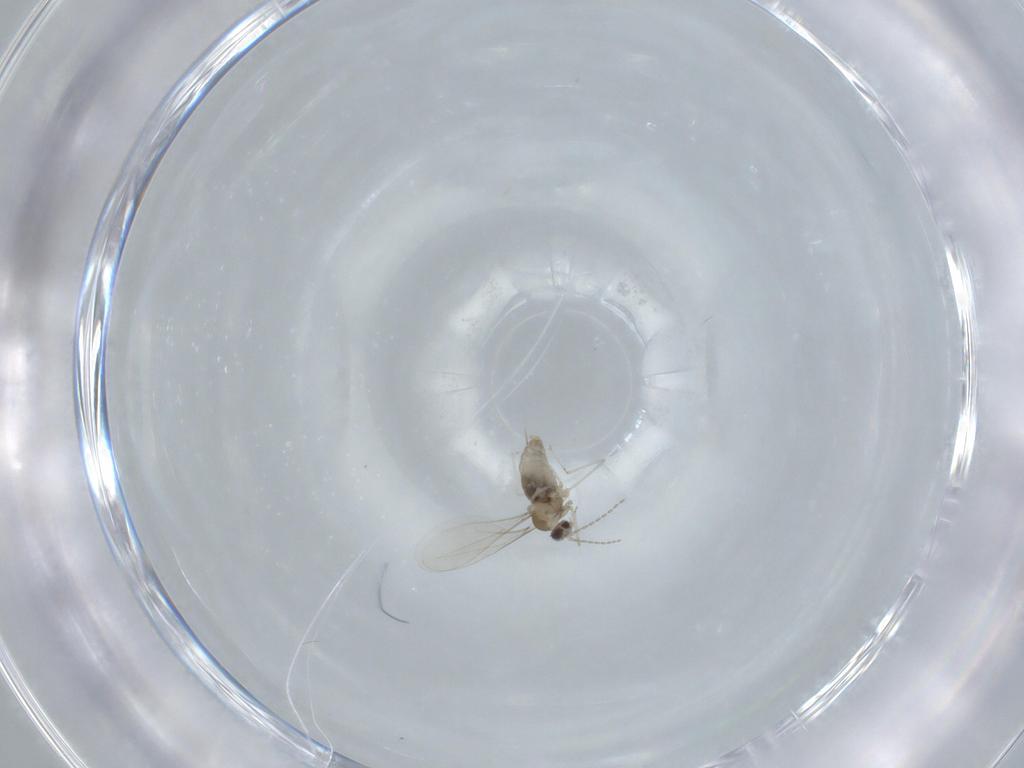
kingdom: Animalia
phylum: Arthropoda
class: Insecta
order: Diptera
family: Cecidomyiidae
